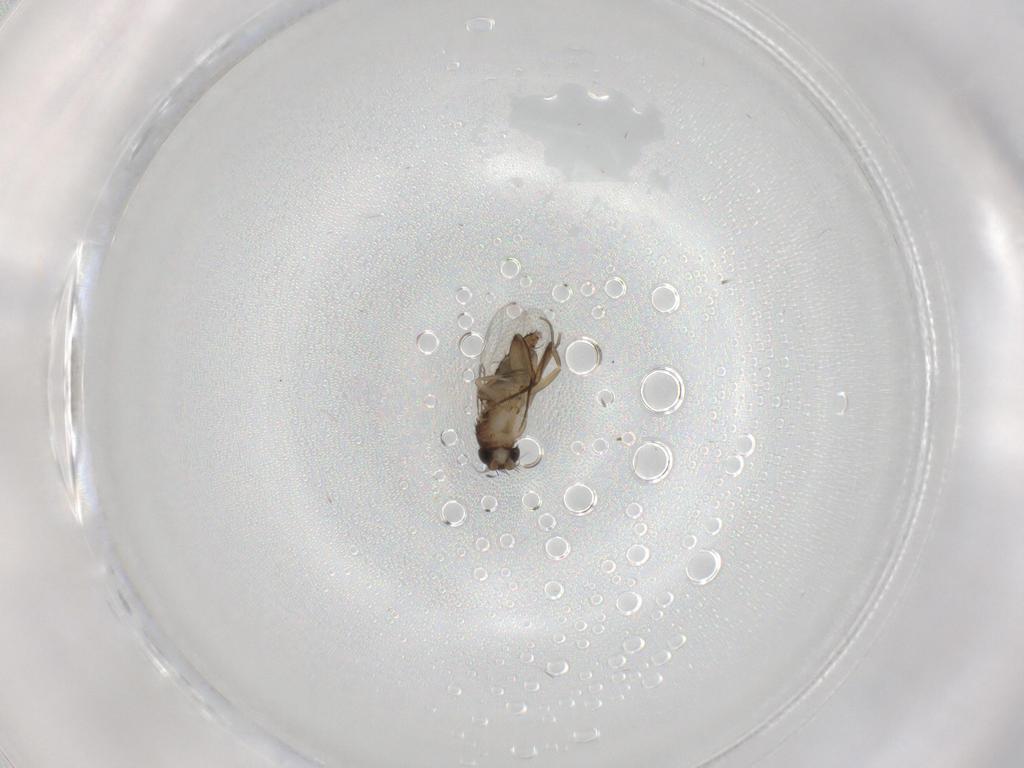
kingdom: Animalia
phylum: Arthropoda
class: Insecta
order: Diptera
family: Phoridae
